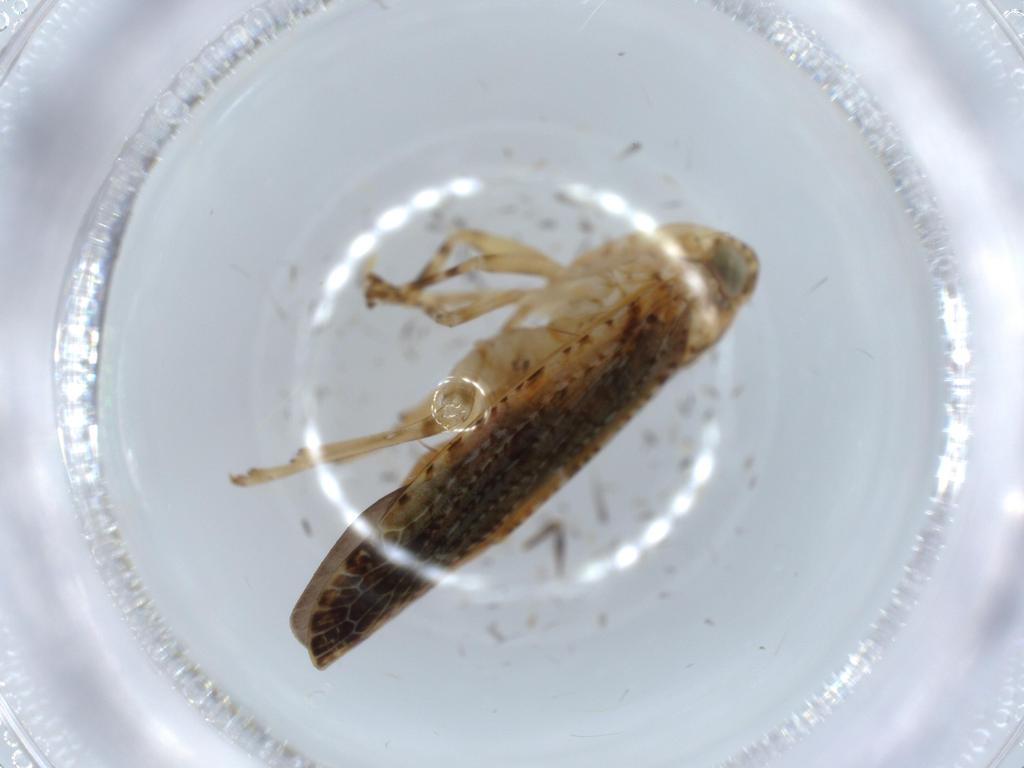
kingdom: Animalia
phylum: Arthropoda
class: Insecta
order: Hemiptera
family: Achilidae
